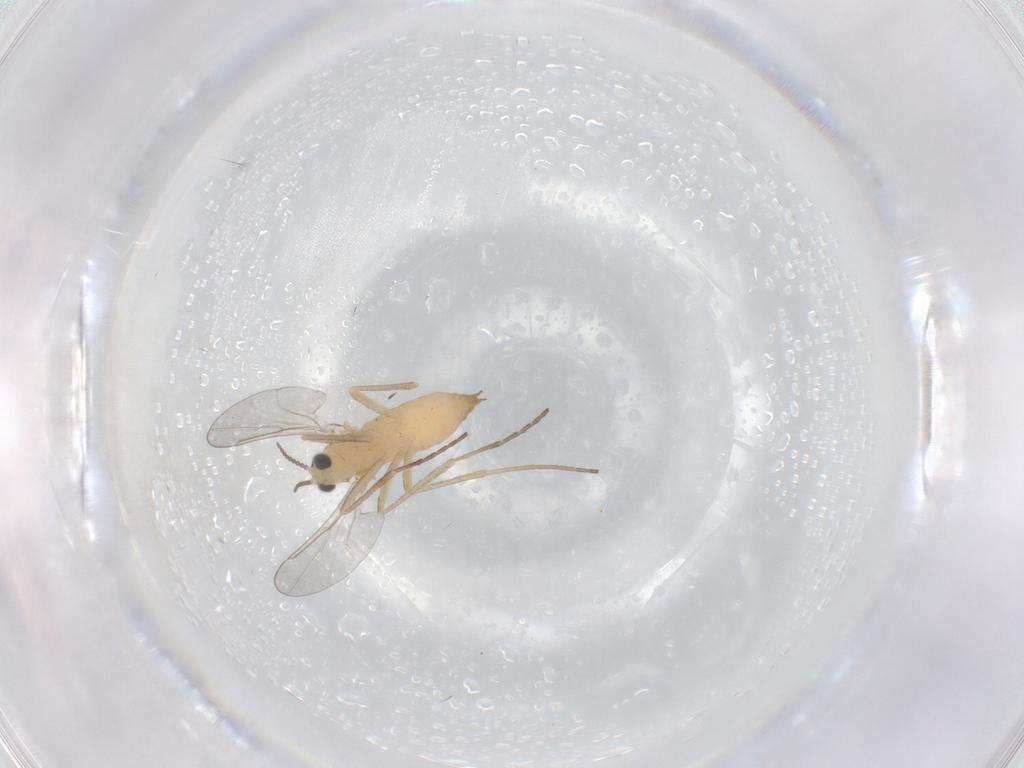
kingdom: Animalia
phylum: Arthropoda
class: Insecta
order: Diptera
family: Cecidomyiidae
